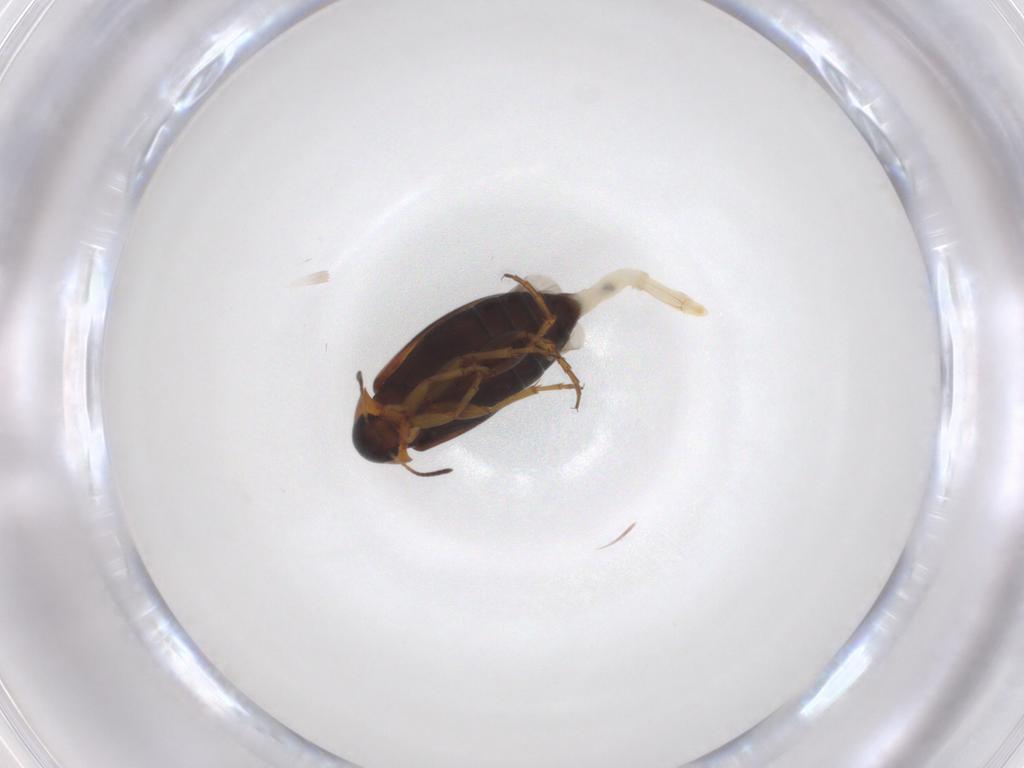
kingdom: Animalia
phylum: Arthropoda
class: Insecta
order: Coleoptera
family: Scraptiidae
